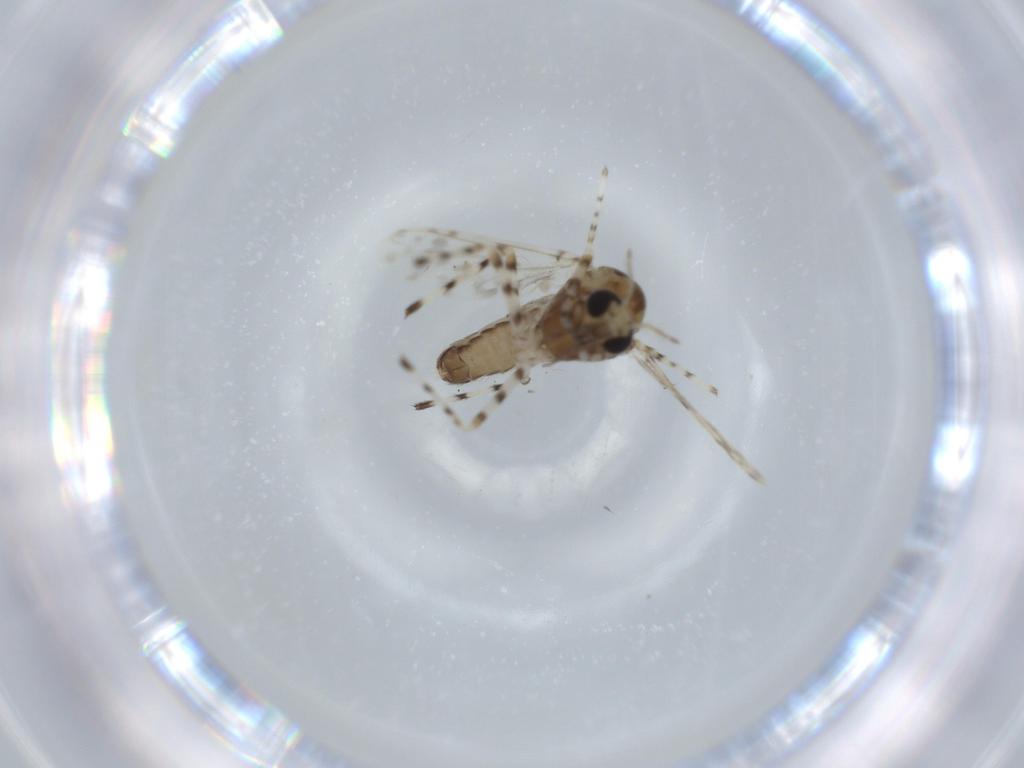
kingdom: Animalia
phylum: Arthropoda
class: Insecta
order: Diptera
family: Chironomidae
